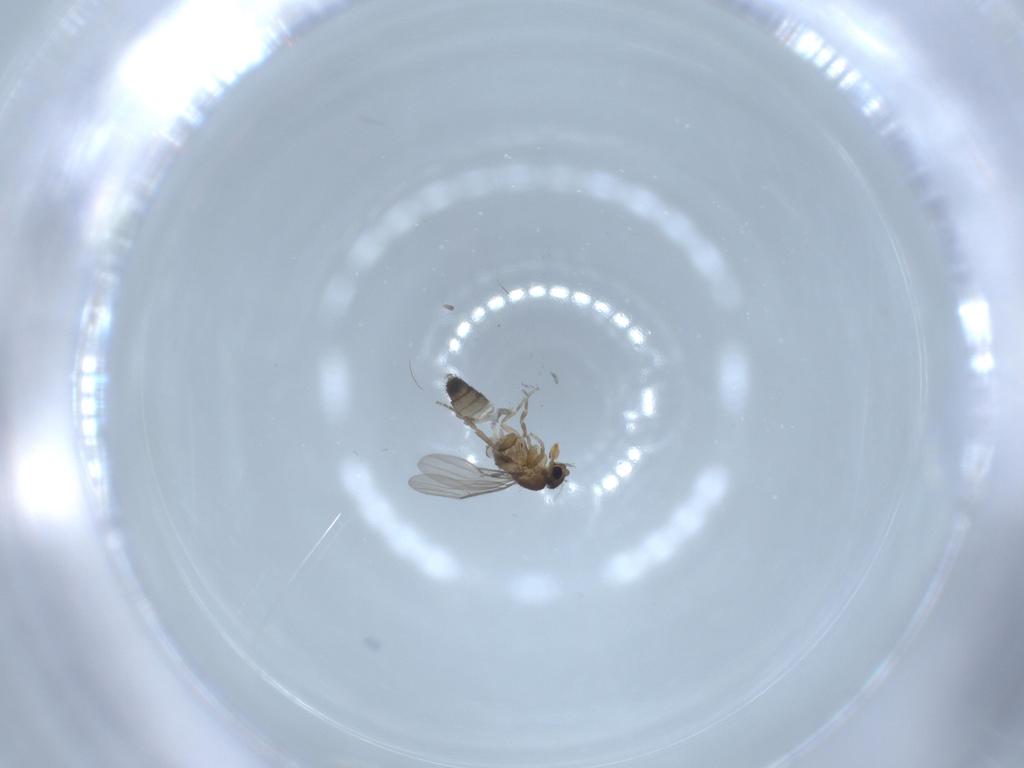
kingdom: Animalia
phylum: Arthropoda
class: Insecta
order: Diptera
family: Phoridae
